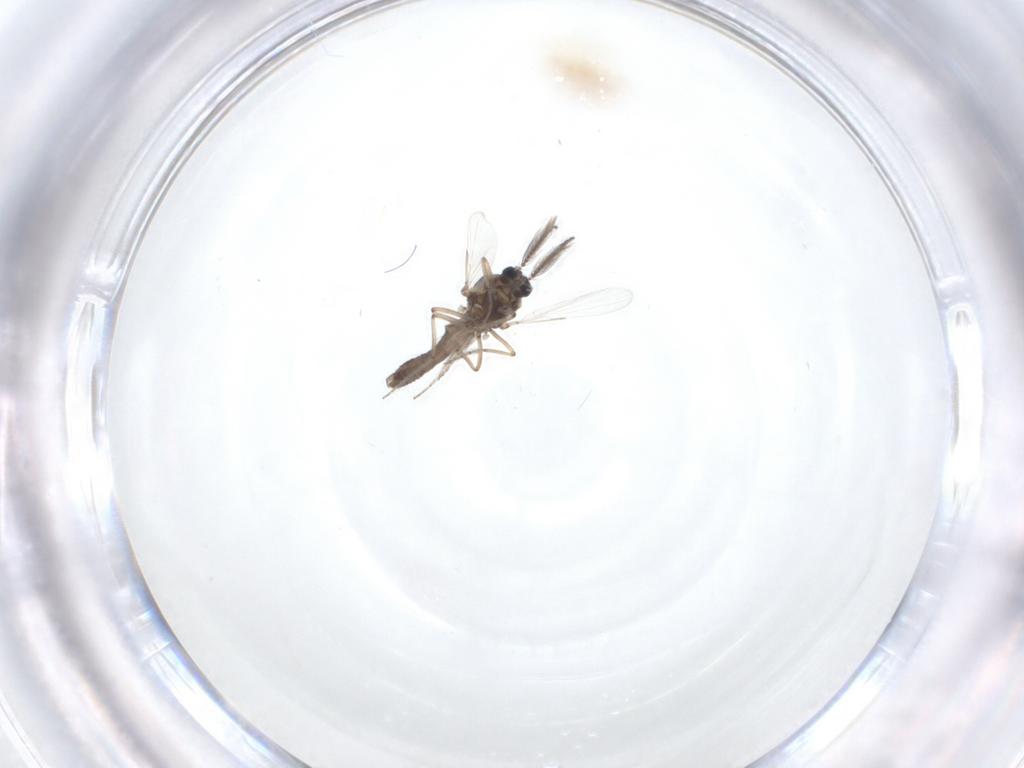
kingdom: Animalia
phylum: Arthropoda
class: Insecta
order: Diptera
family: Ceratopogonidae
